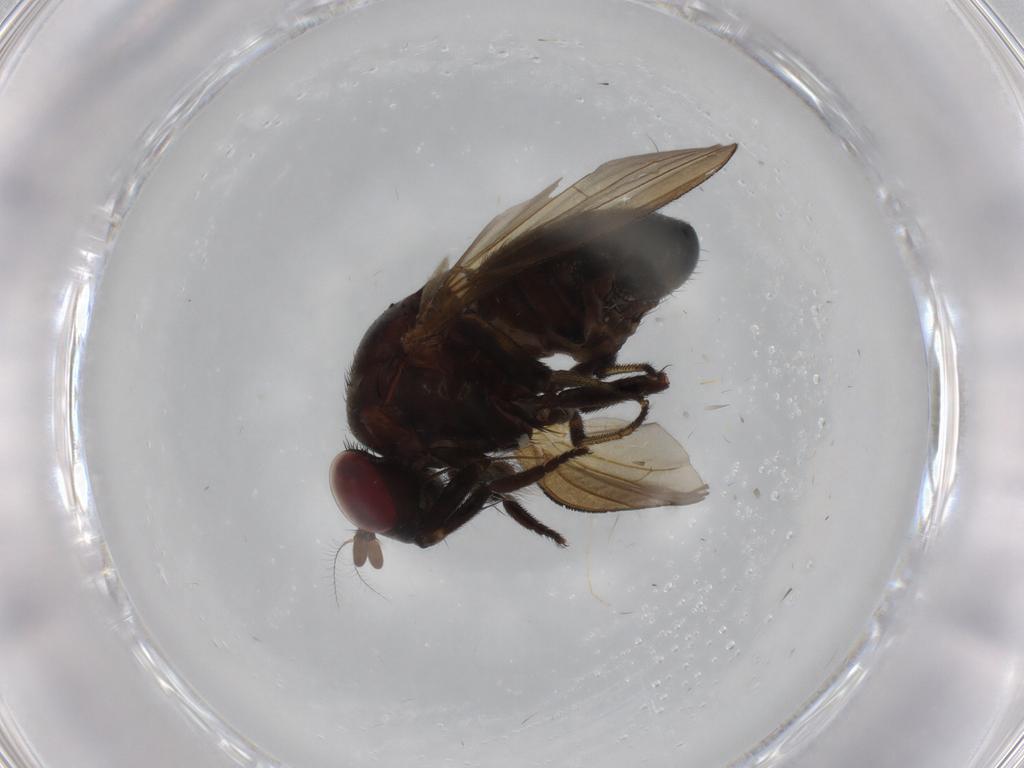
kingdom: Animalia
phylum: Arthropoda
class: Insecta
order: Diptera
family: Lauxaniidae
